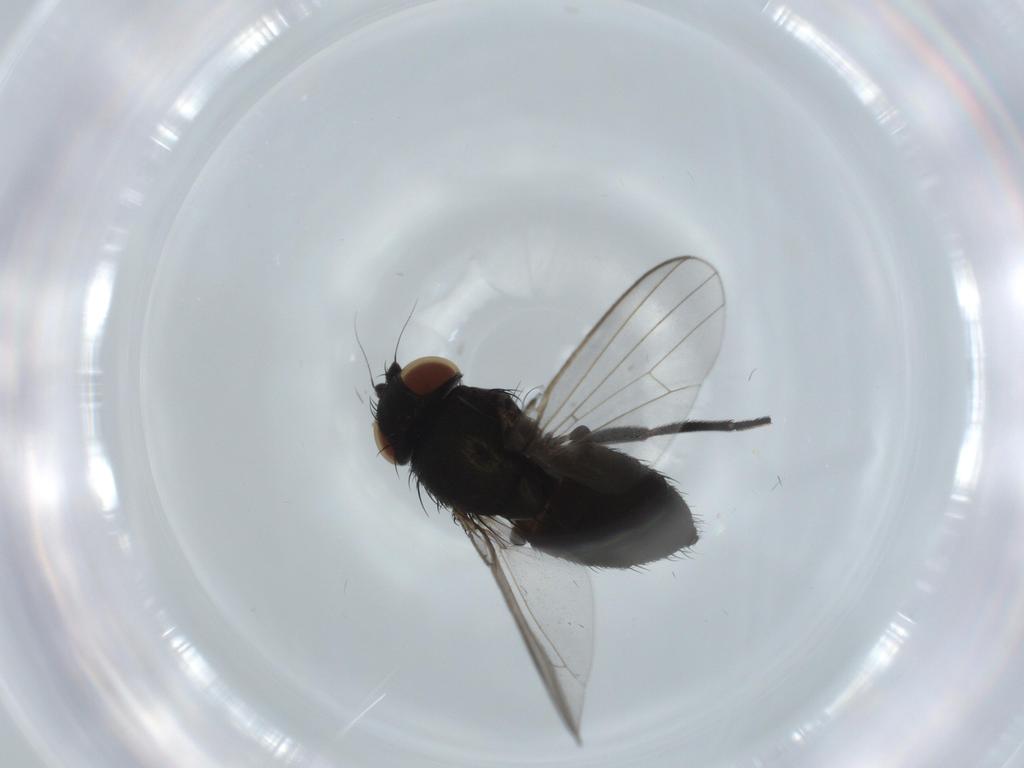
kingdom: Animalia
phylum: Arthropoda
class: Insecta
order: Diptera
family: Milichiidae
